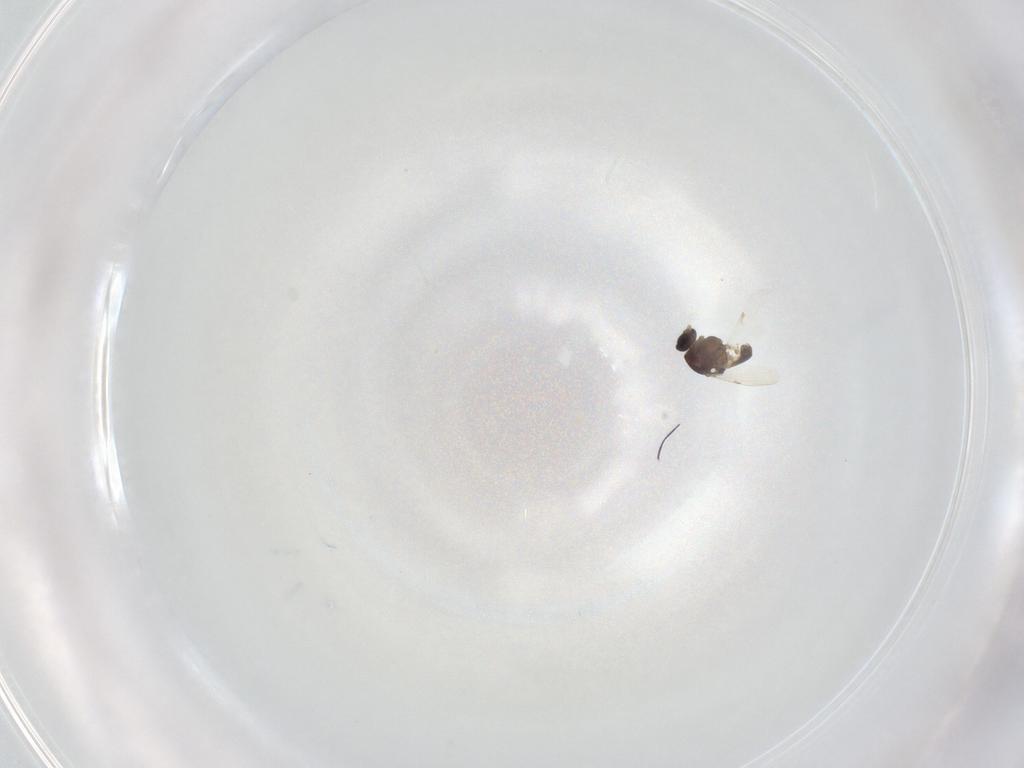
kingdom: Animalia
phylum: Arthropoda
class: Insecta
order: Diptera
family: Ceratopogonidae
